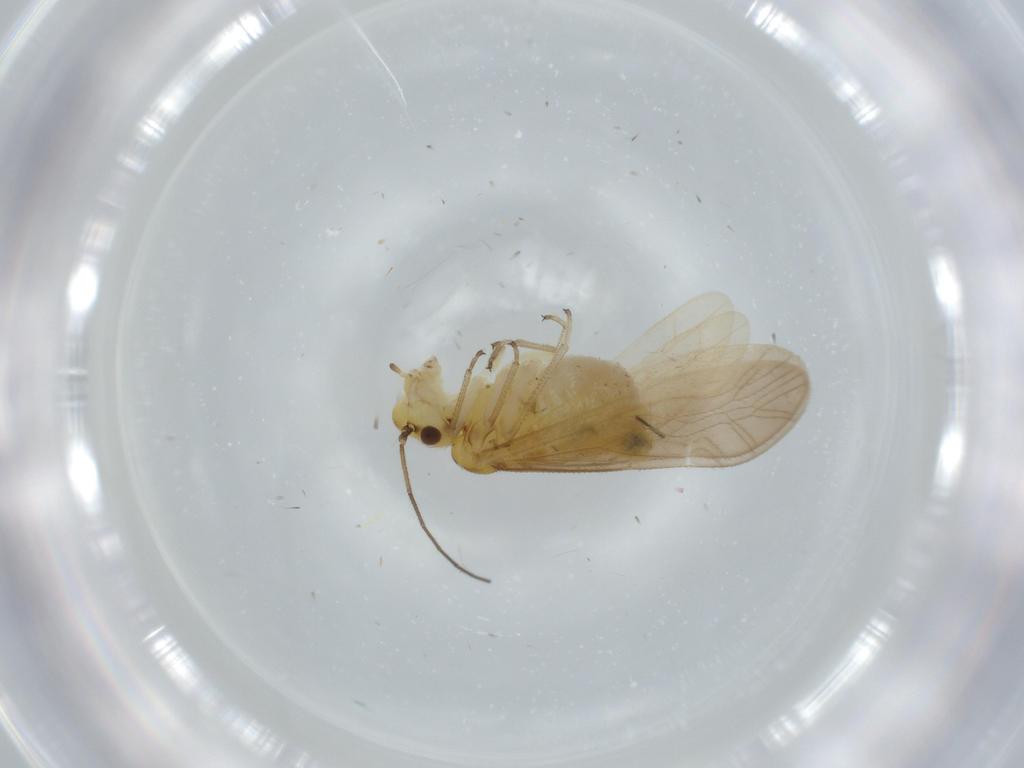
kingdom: Animalia
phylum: Arthropoda
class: Insecta
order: Psocodea
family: Caeciliusidae
